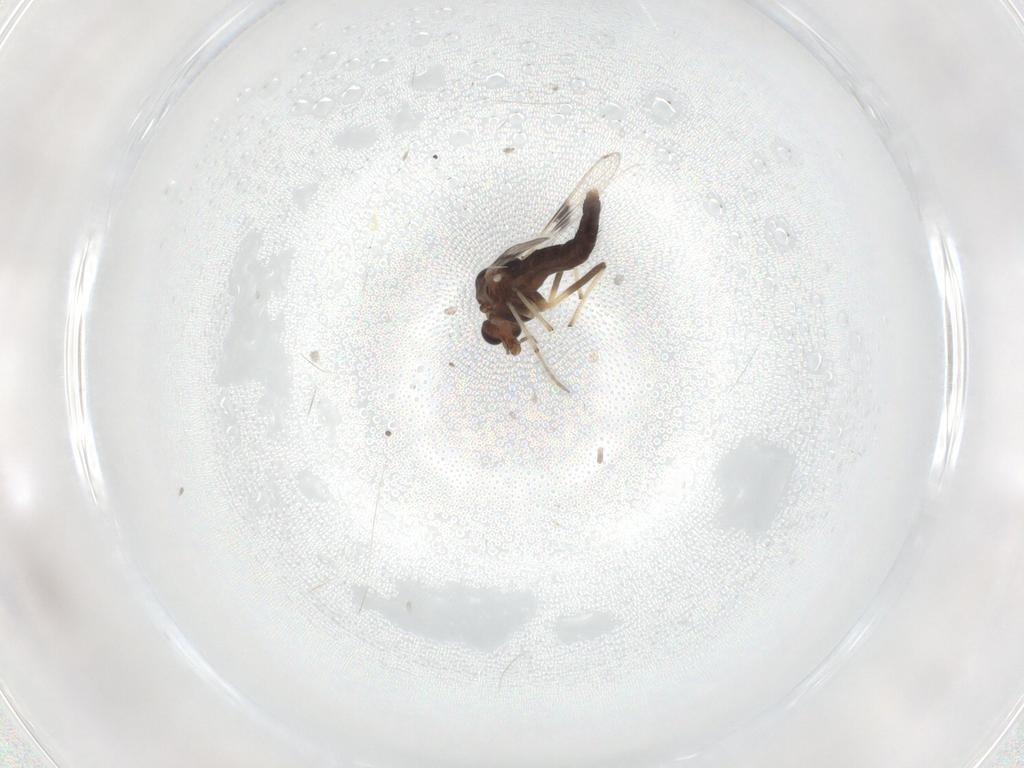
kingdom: Animalia
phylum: Arthropoda
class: Insecta
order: Diptera
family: Chironomidae
